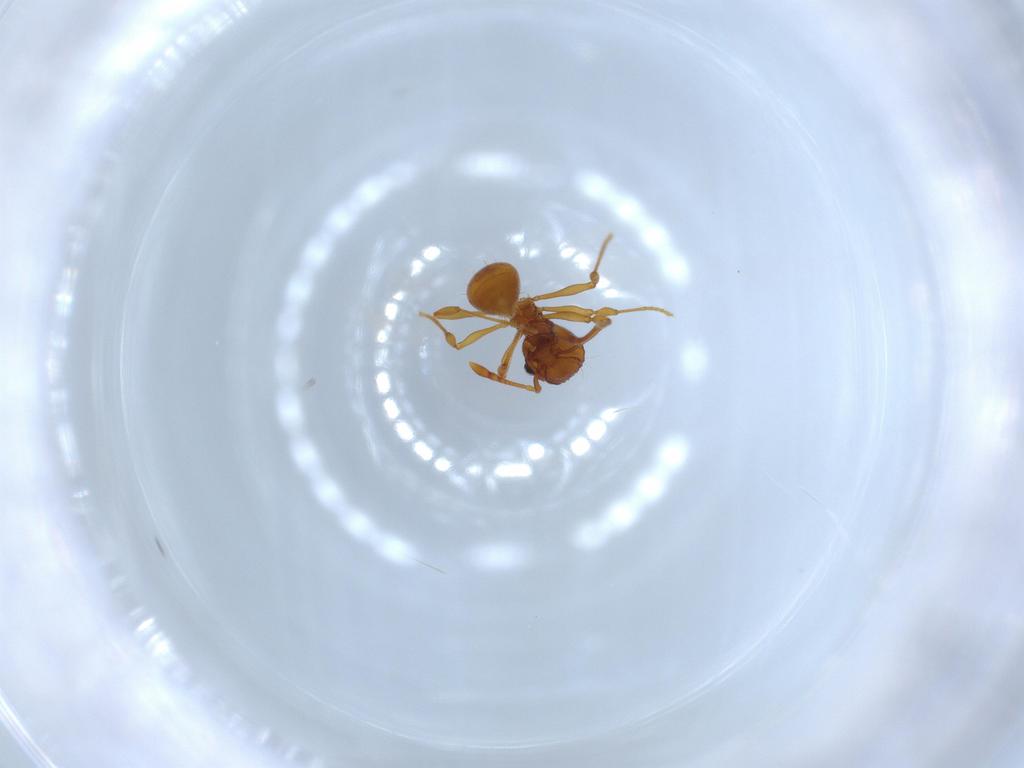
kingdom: Animalia
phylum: Arthropoda
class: Insecta
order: Hymenoptera
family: Formicidae
